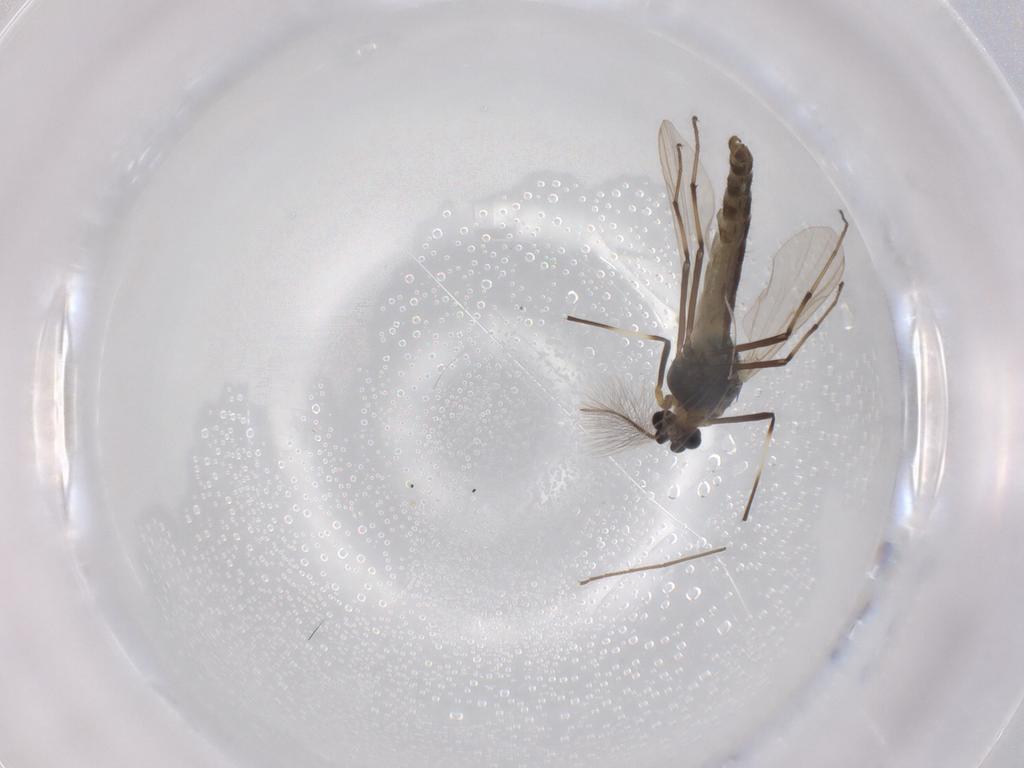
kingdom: Animalia
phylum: Arthropoda
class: Insecta
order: Diptera
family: Chironomidae
